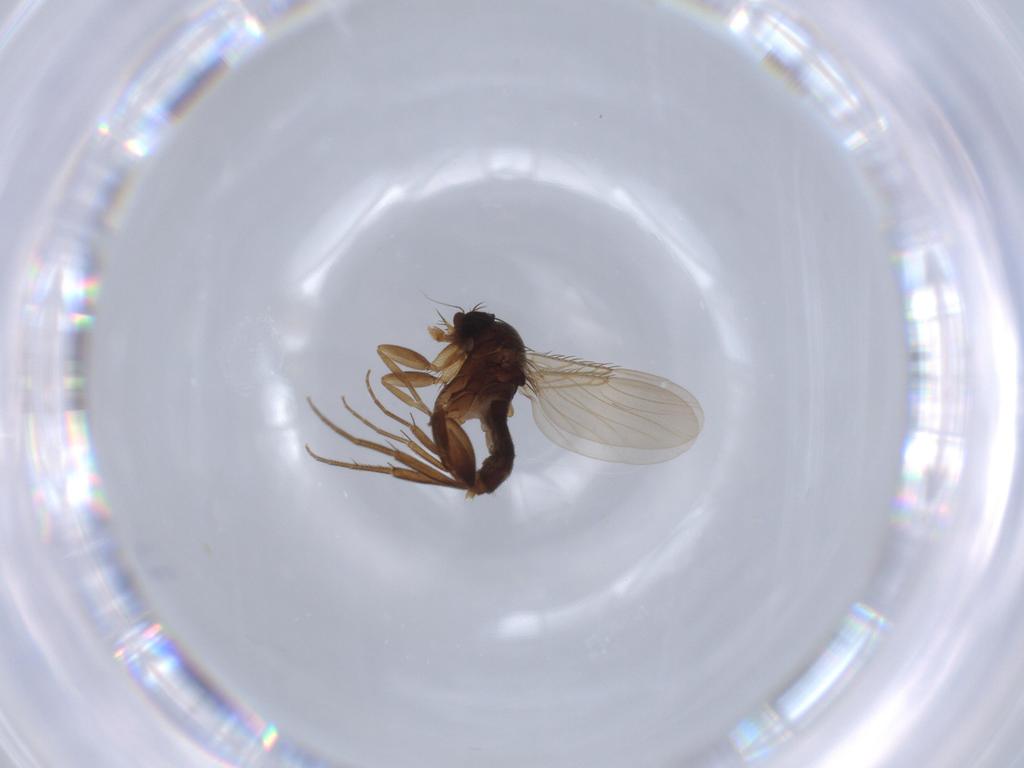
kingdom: Animalia
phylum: Arthropoda
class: Insecta
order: Diptera
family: Phoridae
